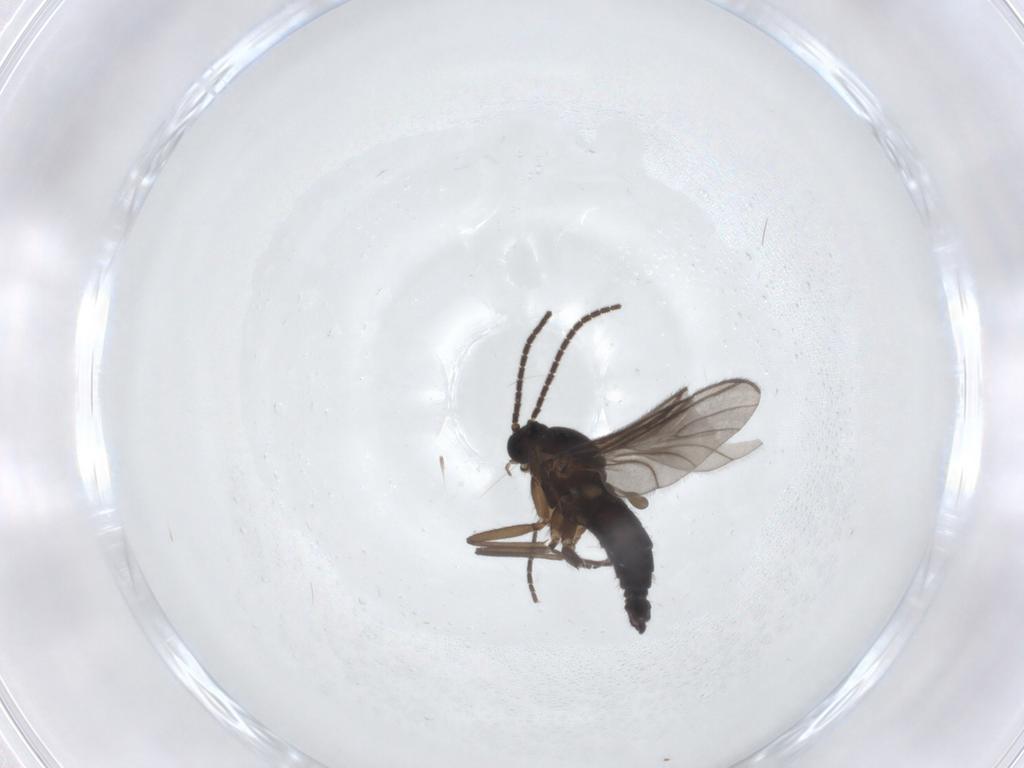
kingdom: Animalia
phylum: Arthropoda
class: Insecta
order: Diptera
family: Sciaridae
